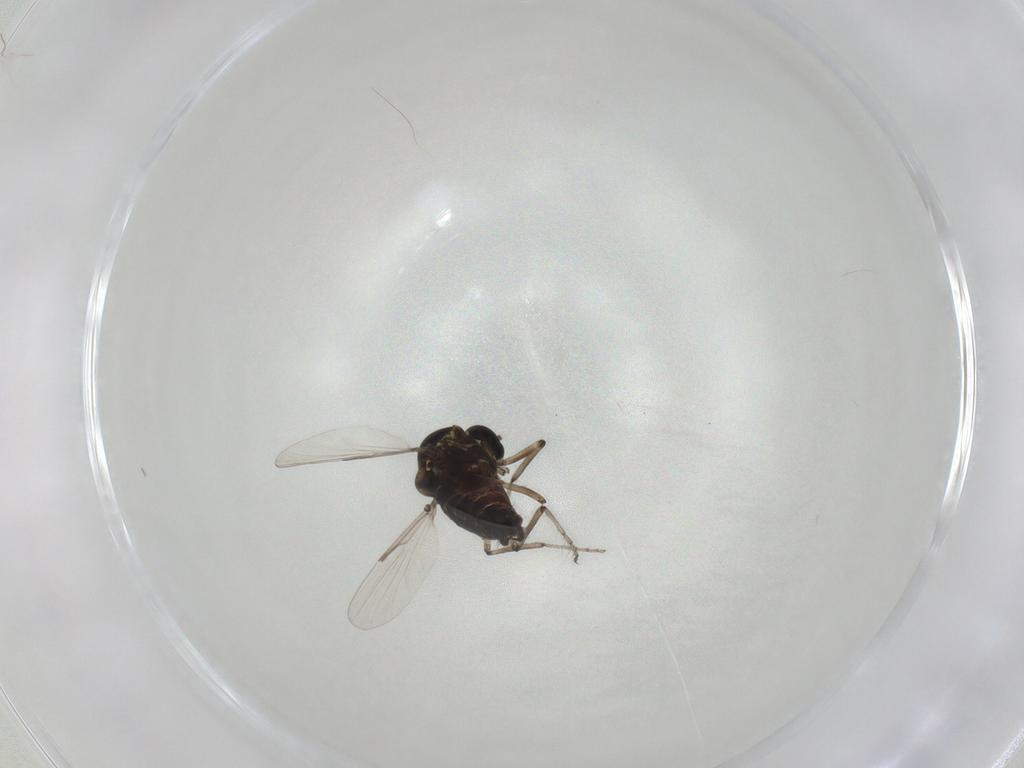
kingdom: Animalia
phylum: Arthropoda
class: Insecta
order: Diptera
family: Ceratopogonidae
